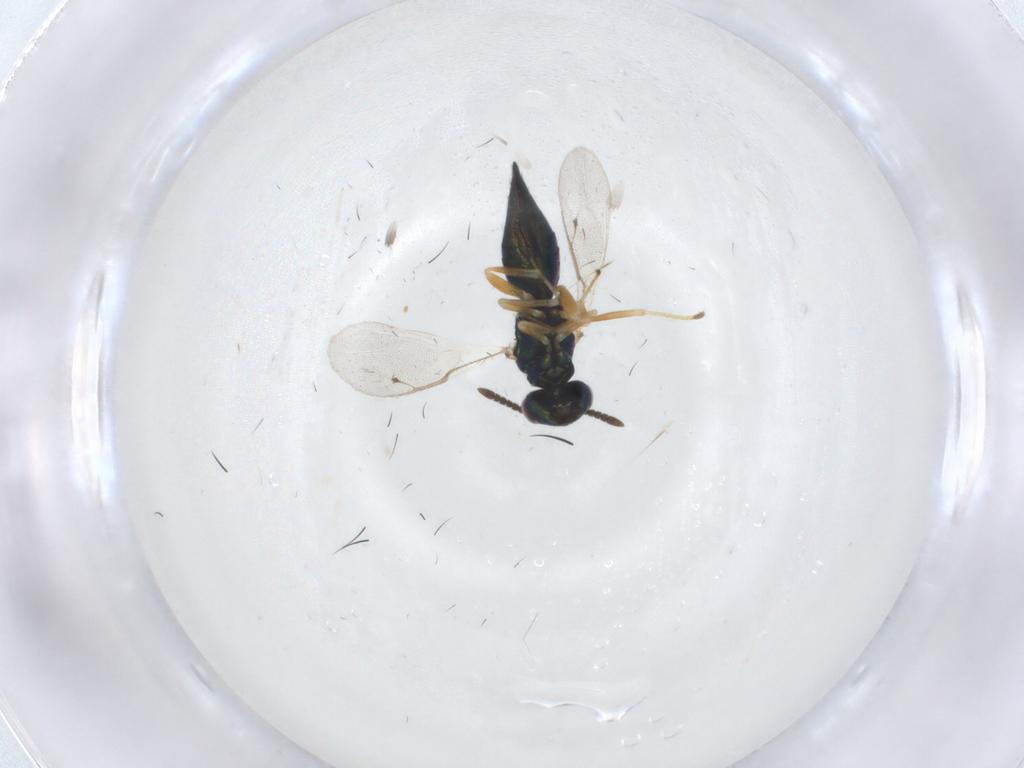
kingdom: Animalia
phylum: Arthropoda
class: Insecta
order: Hymenoptera
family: Pteromalidae
